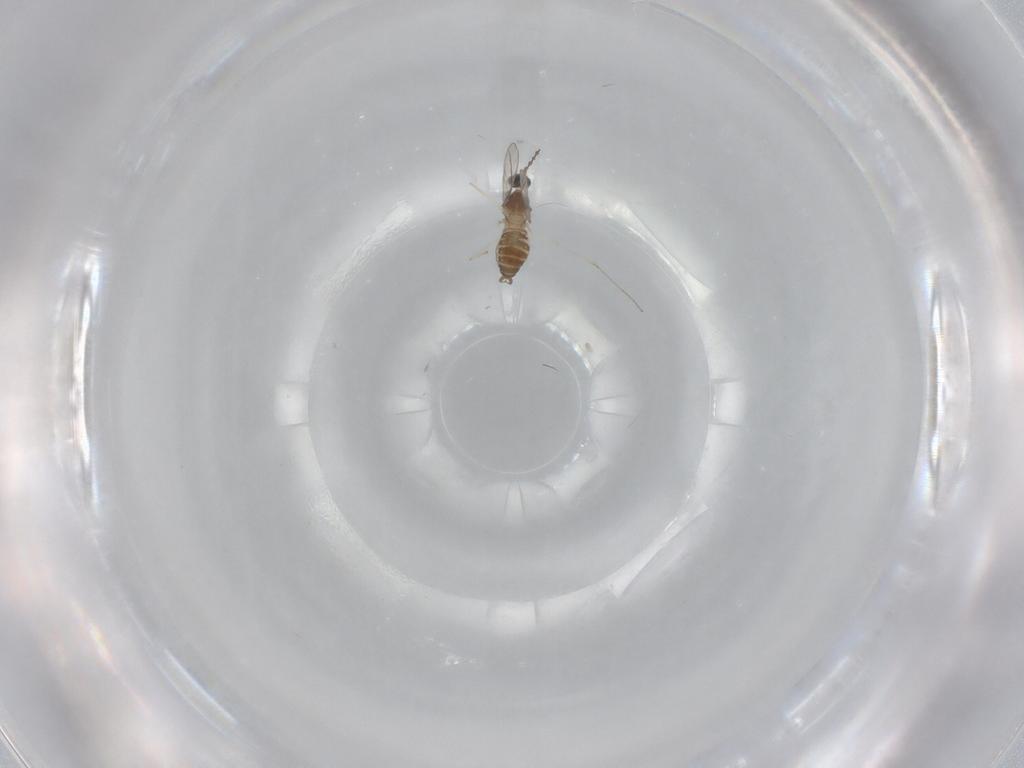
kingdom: Animalia
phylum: Arthropoda
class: Insecta
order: Diptera
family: Cecidomyiidae
